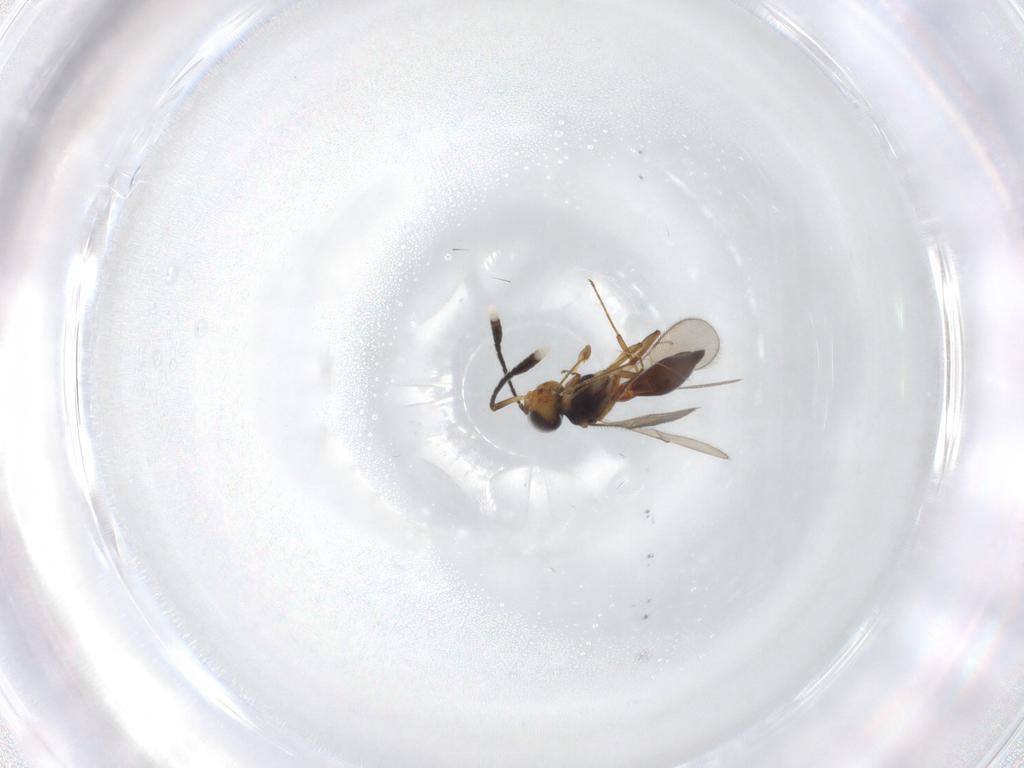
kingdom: Animalia
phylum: Arthropoda
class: Insecta
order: Hymenoptera
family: Scelionidae
